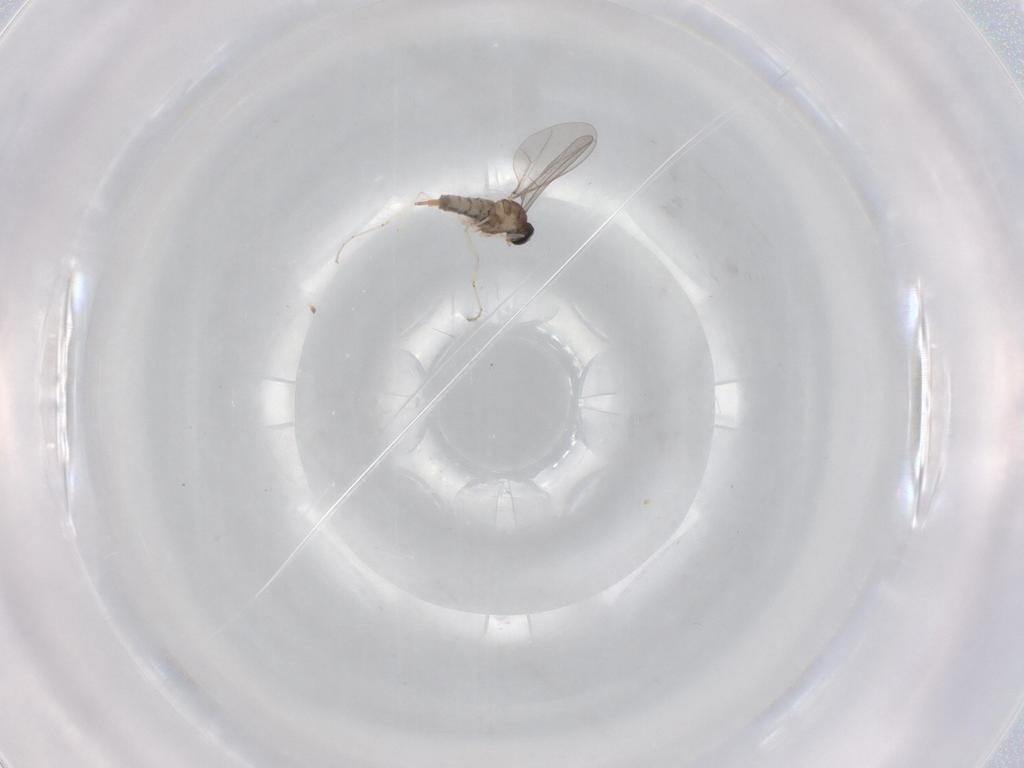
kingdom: Animalia
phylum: Arthropoda
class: Insecta
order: Diptera
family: Cecidomyiidae
